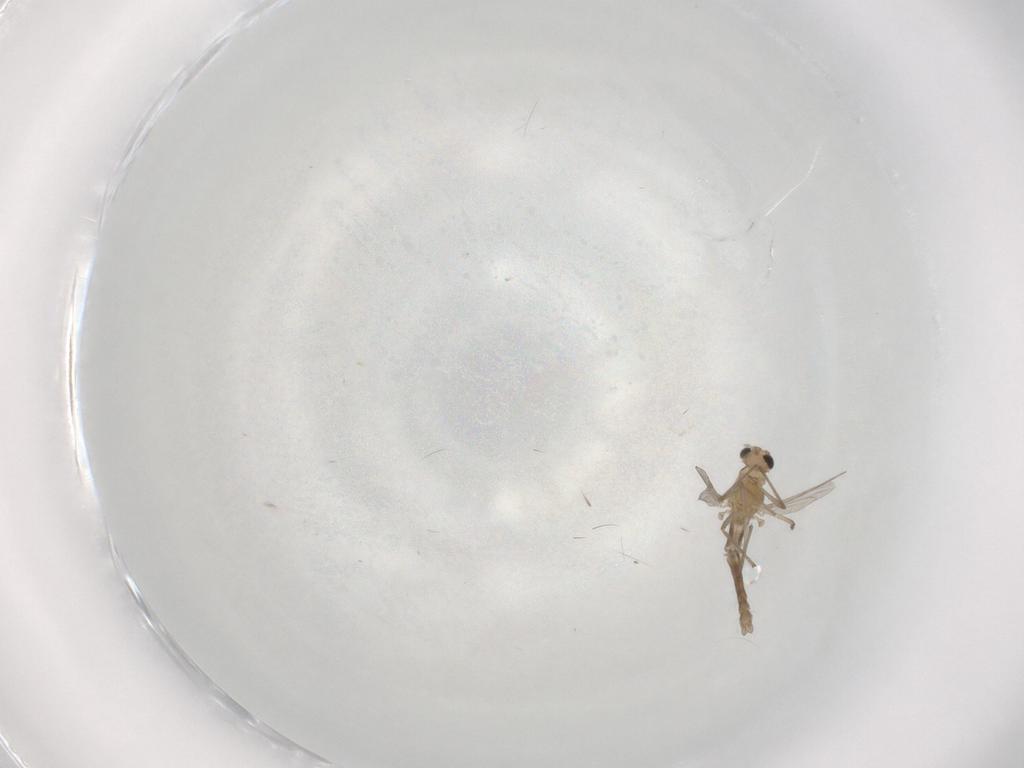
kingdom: Animalia
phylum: Arthropoda
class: Insecta
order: Diptera
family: Chironomidae
